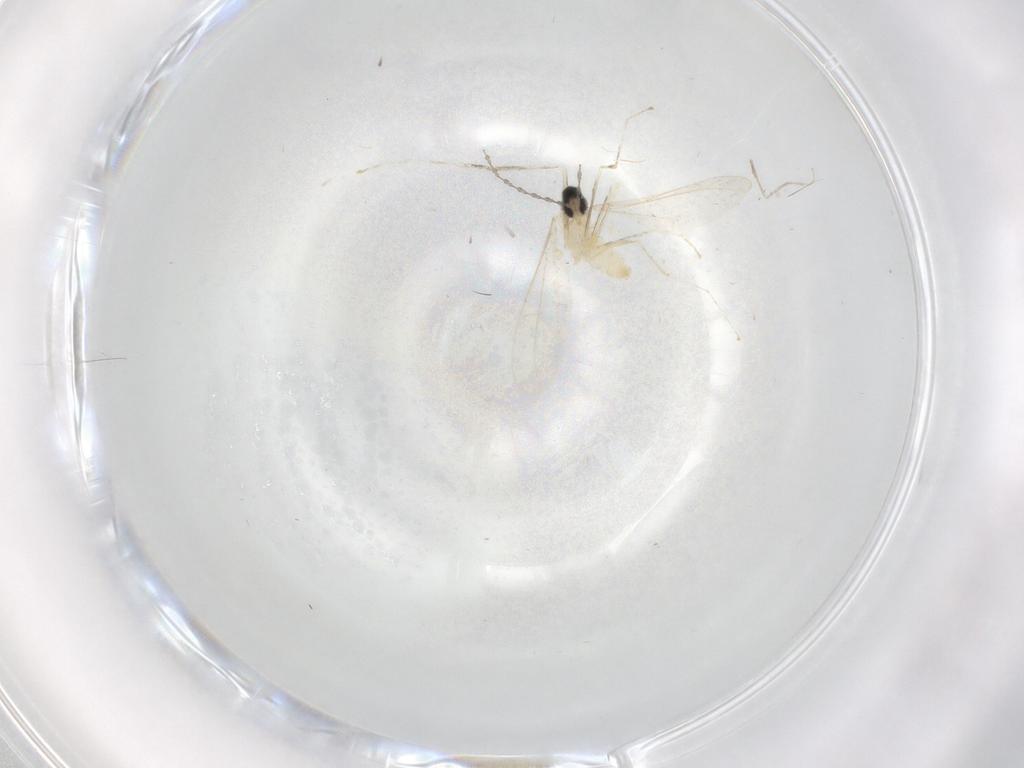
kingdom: Animalia
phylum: Arthropoda
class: Insecta
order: Diptera
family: Cecidomyiidae
